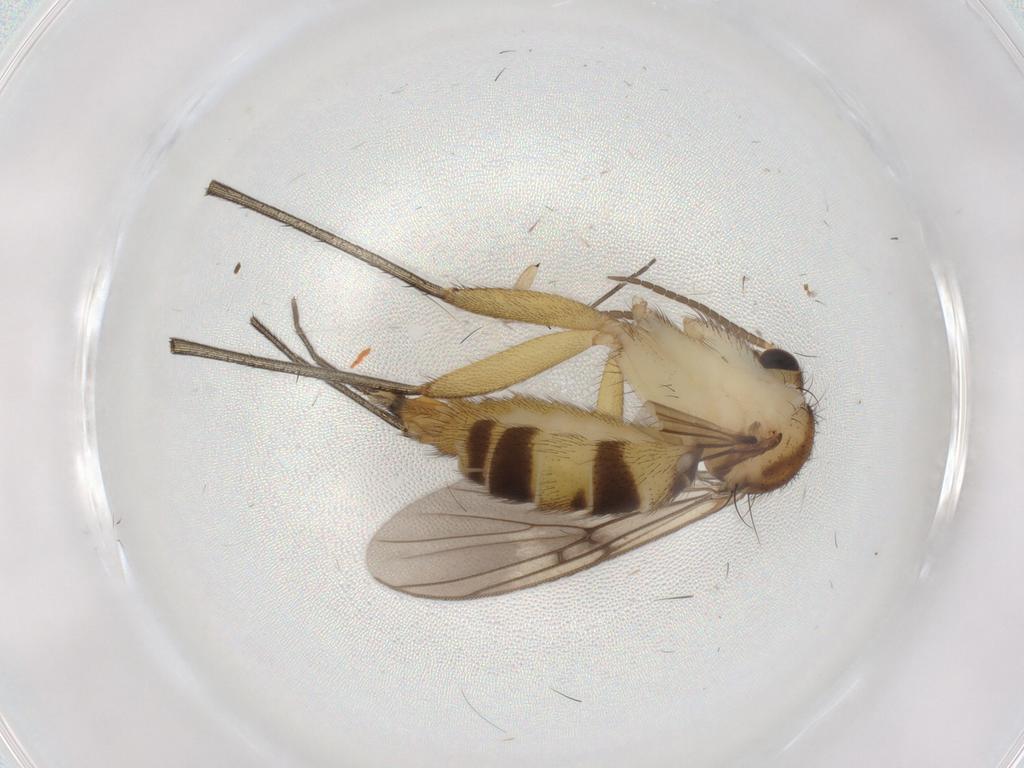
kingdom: Animalia
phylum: Arthropoda
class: Insecta
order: Diptera
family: Mycetophilidae
